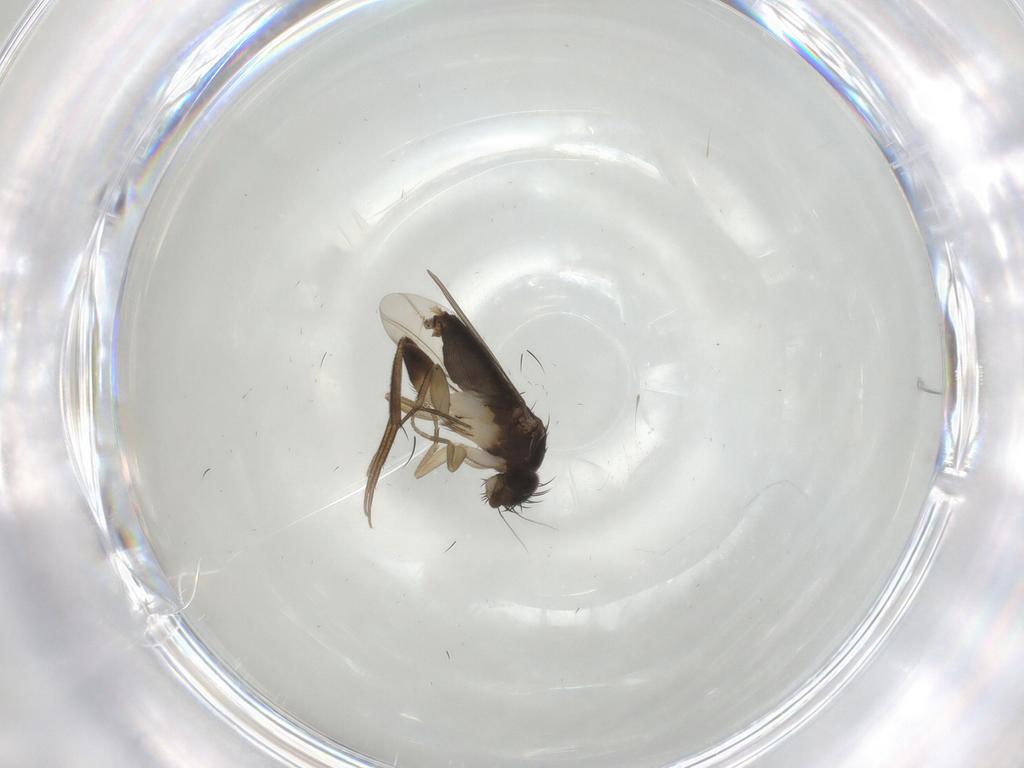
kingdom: Animalia
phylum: Arthropoda
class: Insecta
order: Diptera
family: Phoridae
